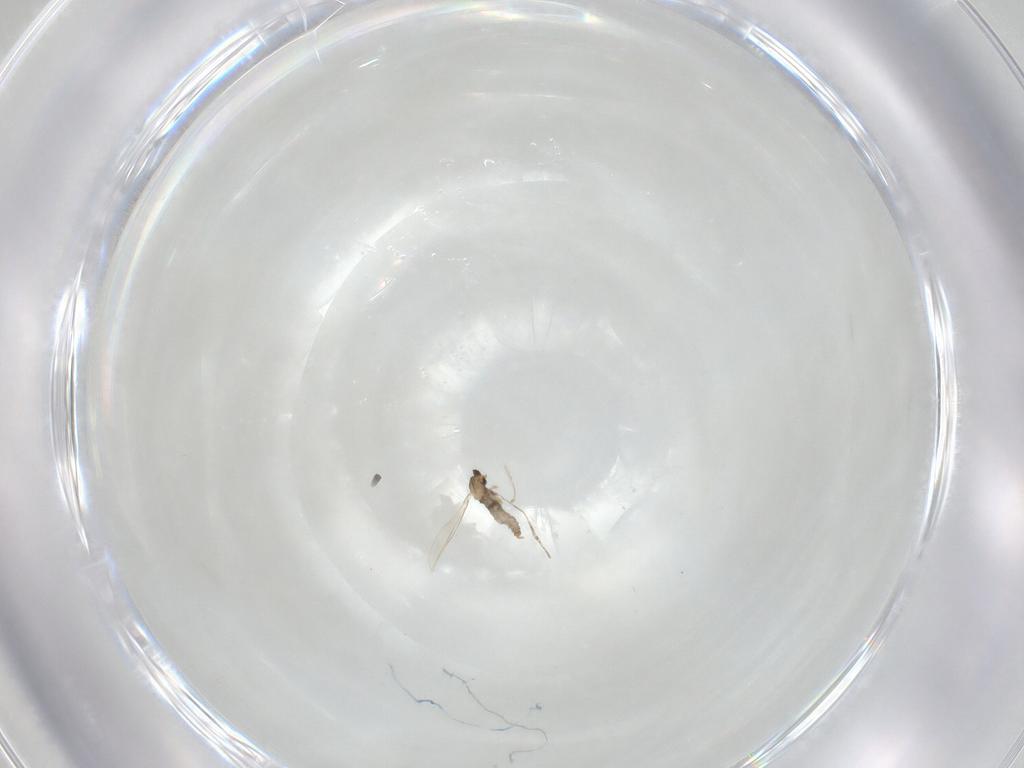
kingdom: Animalia
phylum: Arthropoda
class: Insecta
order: Diptera
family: Cecidomyiidae
